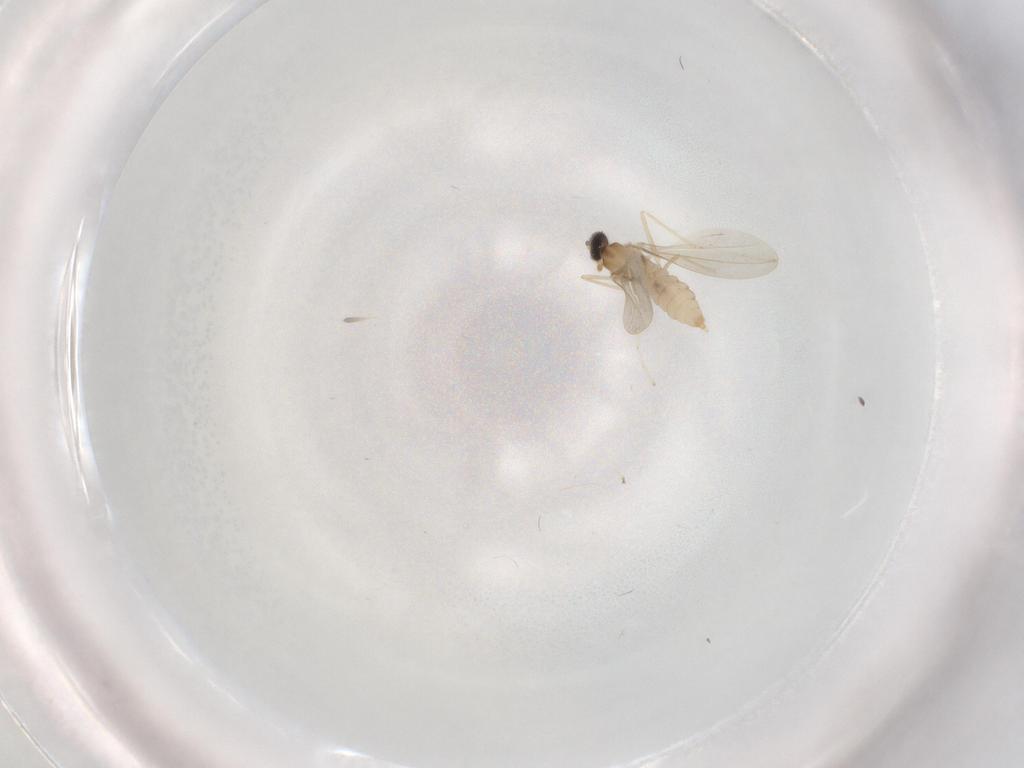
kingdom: Animalia
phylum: Arthropoda
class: Insecta
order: Diptera
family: Cecidomyiidae
